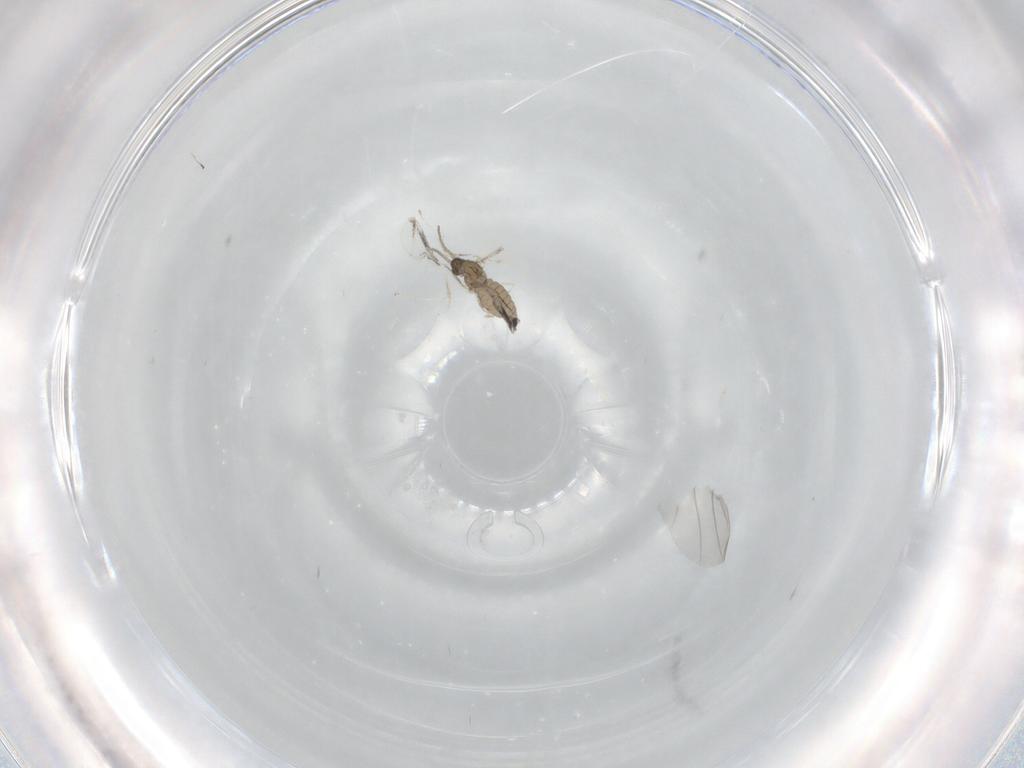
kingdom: Animalia
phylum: Arthropoda
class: Insecta
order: Diptera
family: Cecidomyiidae
